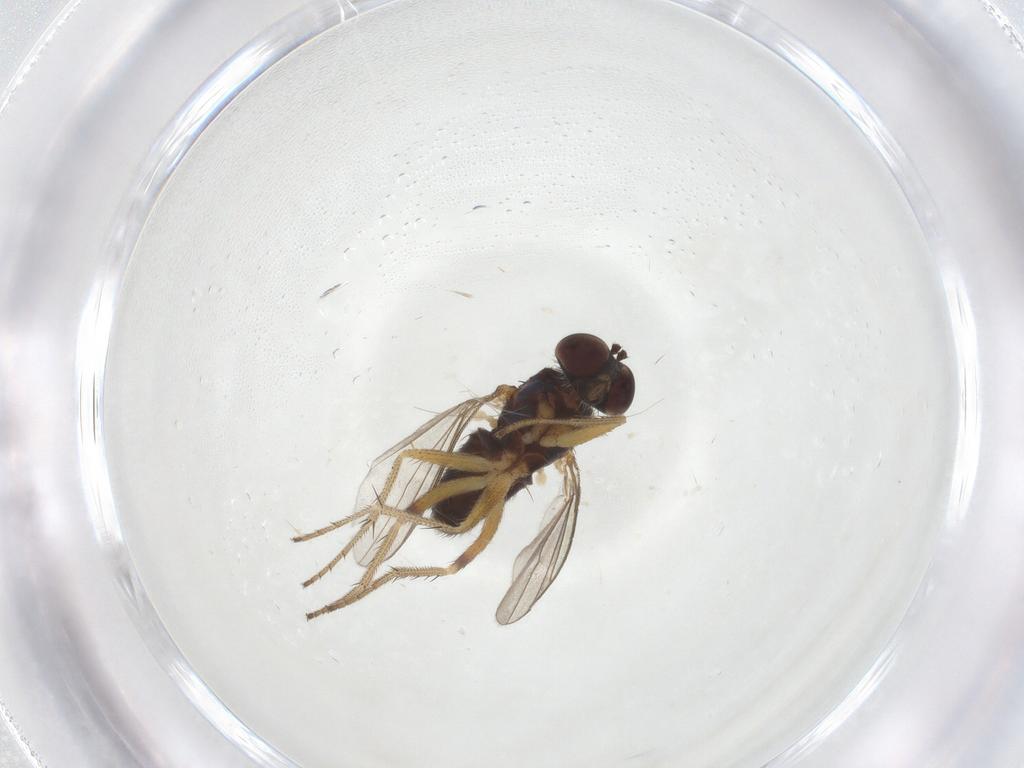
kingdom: Animalia
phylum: Arthropoda
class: Insecta
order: Diptera
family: Dolichopodidae
